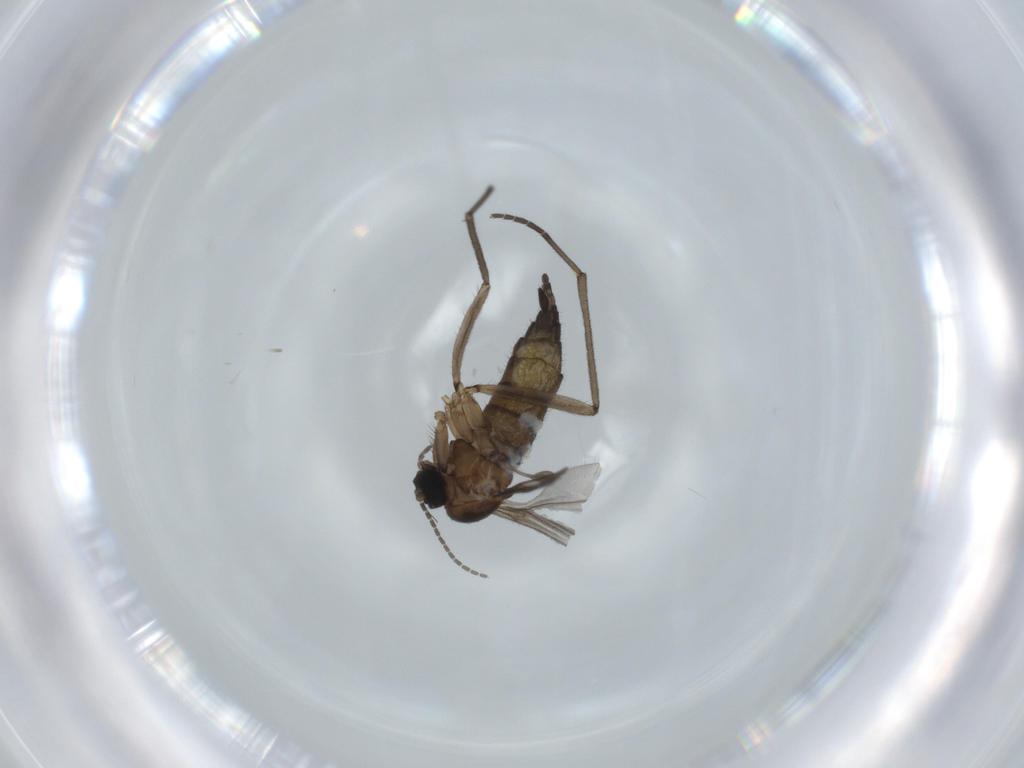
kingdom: Animalia
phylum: Arthropoda
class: Insecta
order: Diptera
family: Sciaridae
